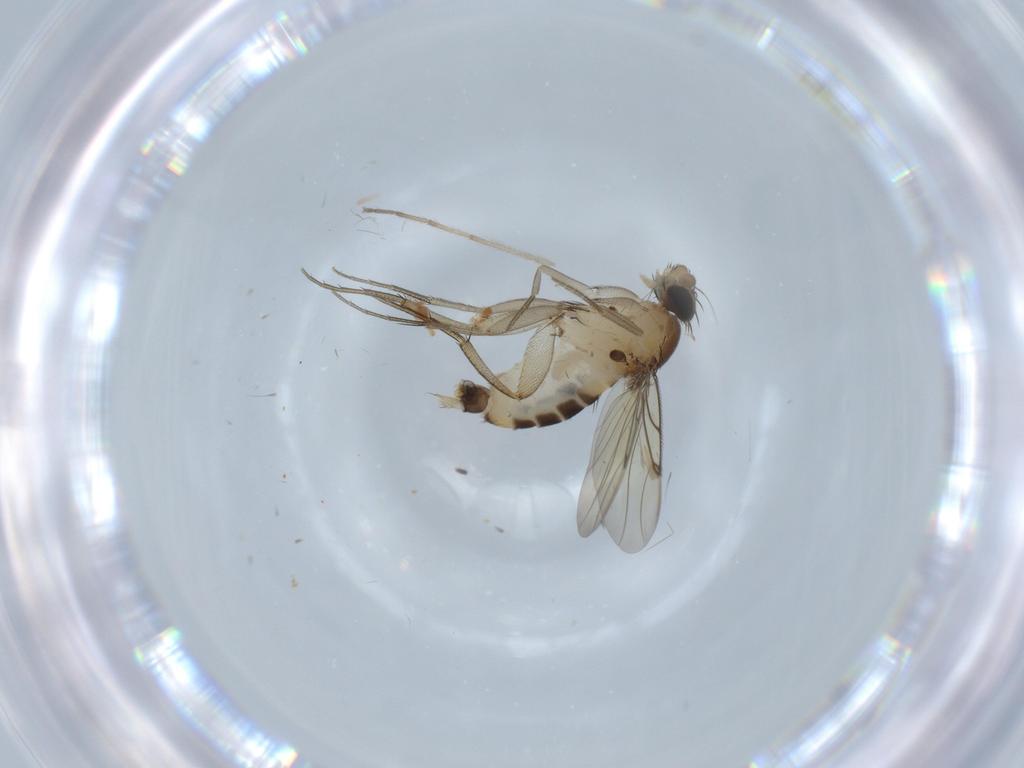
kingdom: Animalia
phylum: Arthropoda
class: Insecta
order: Diptera
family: Phoridae
